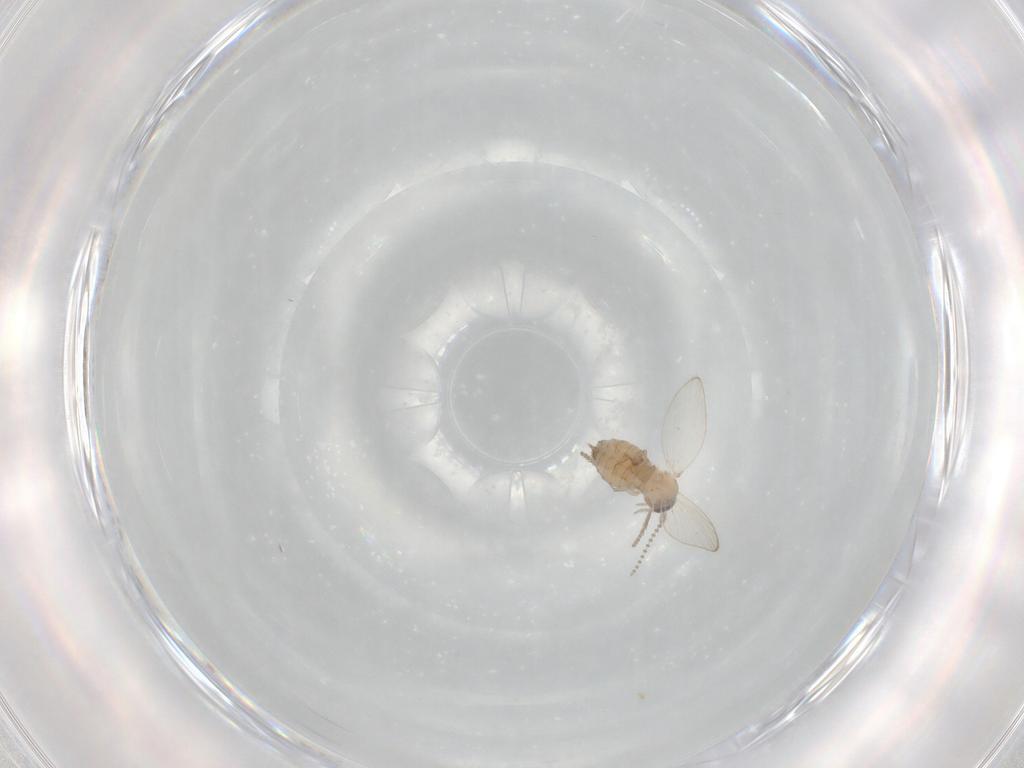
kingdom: Animalia
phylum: Arthropoda
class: Insecta
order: Diptera
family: Psychodidae
